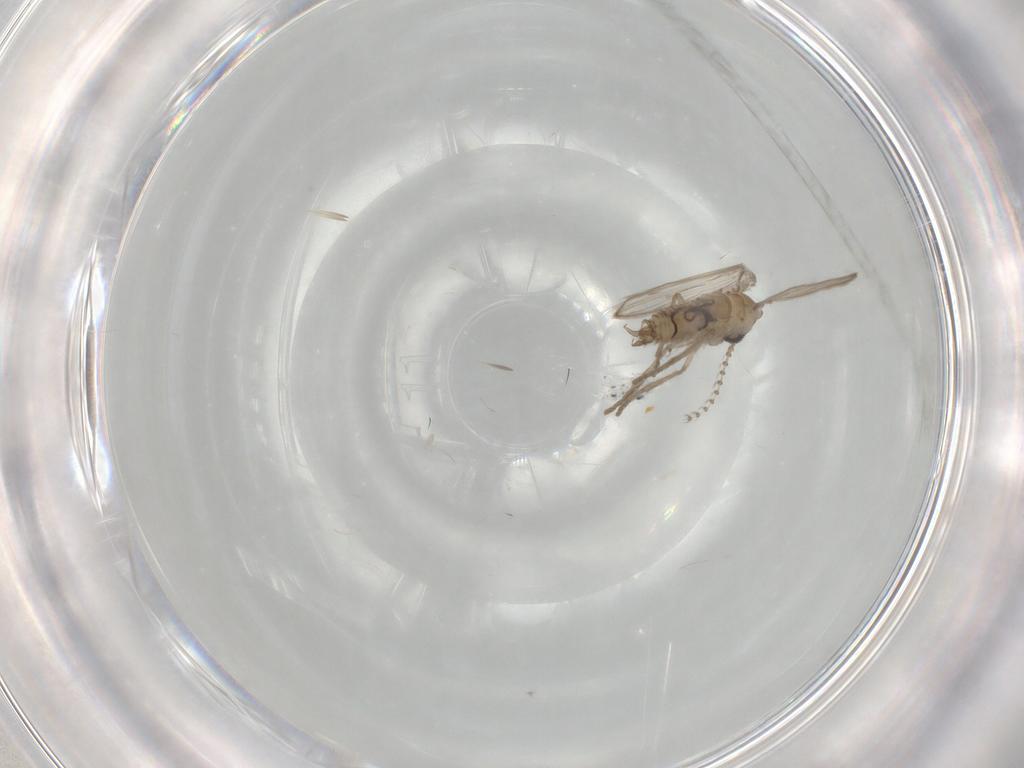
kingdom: Animalia
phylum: Arthropoda
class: Insecta
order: Diptera
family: Psychodidae
